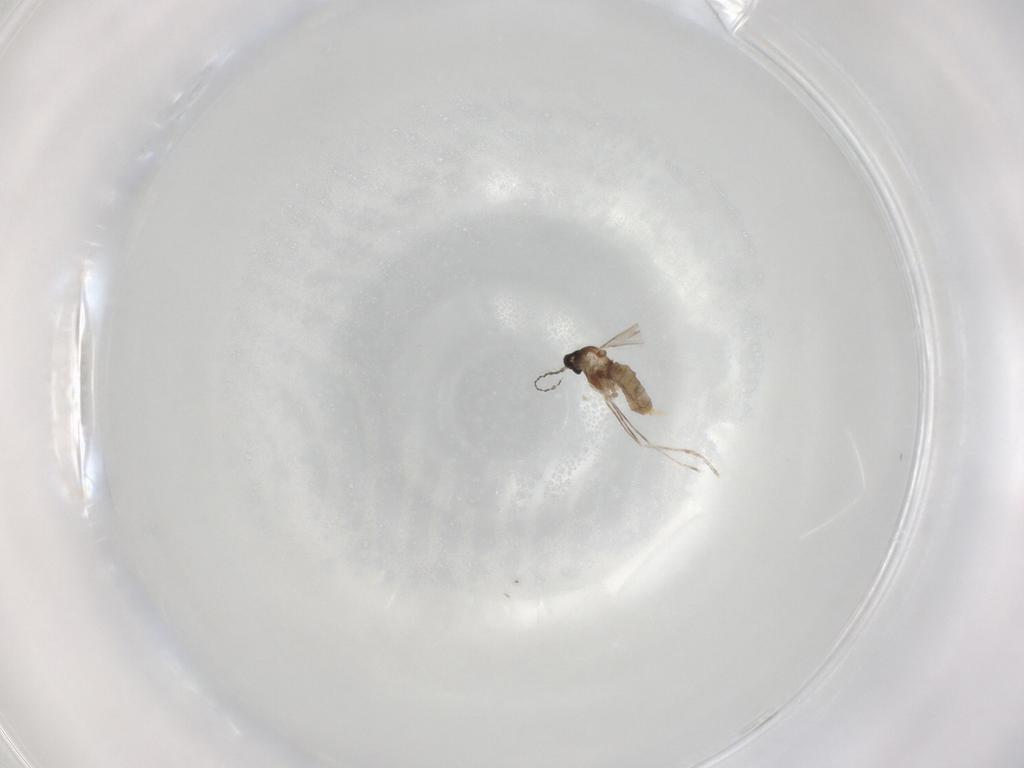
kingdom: Animalia
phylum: Arthropoda
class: Insecta
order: Diptera
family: Cecidomyiidae
